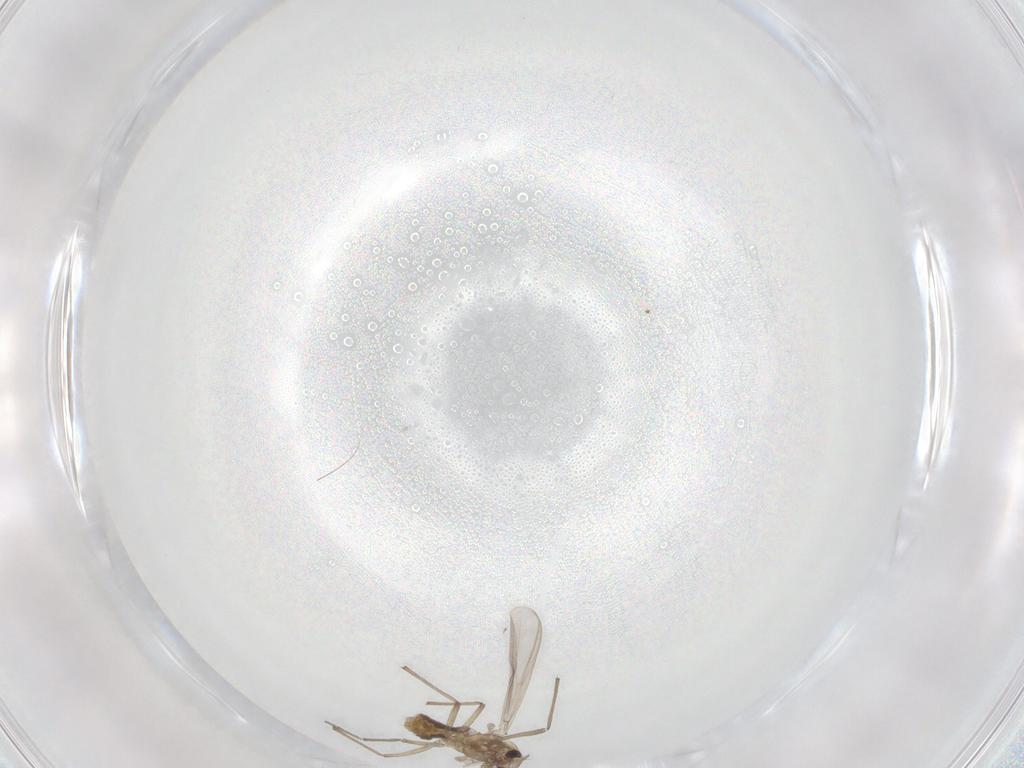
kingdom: Animalia
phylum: Arthropoda
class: Insecta
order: Diptera
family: Chironomidae
